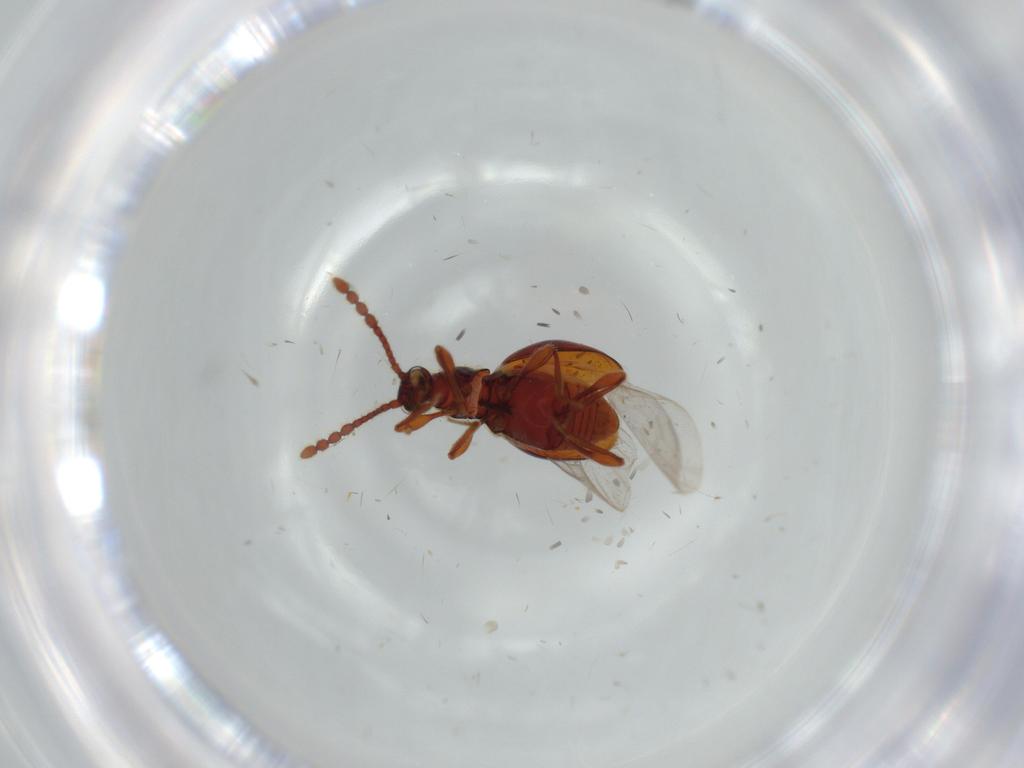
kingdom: Animalia
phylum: Arthropoda
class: Insecta
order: Coleoptera
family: Staphylinidae
